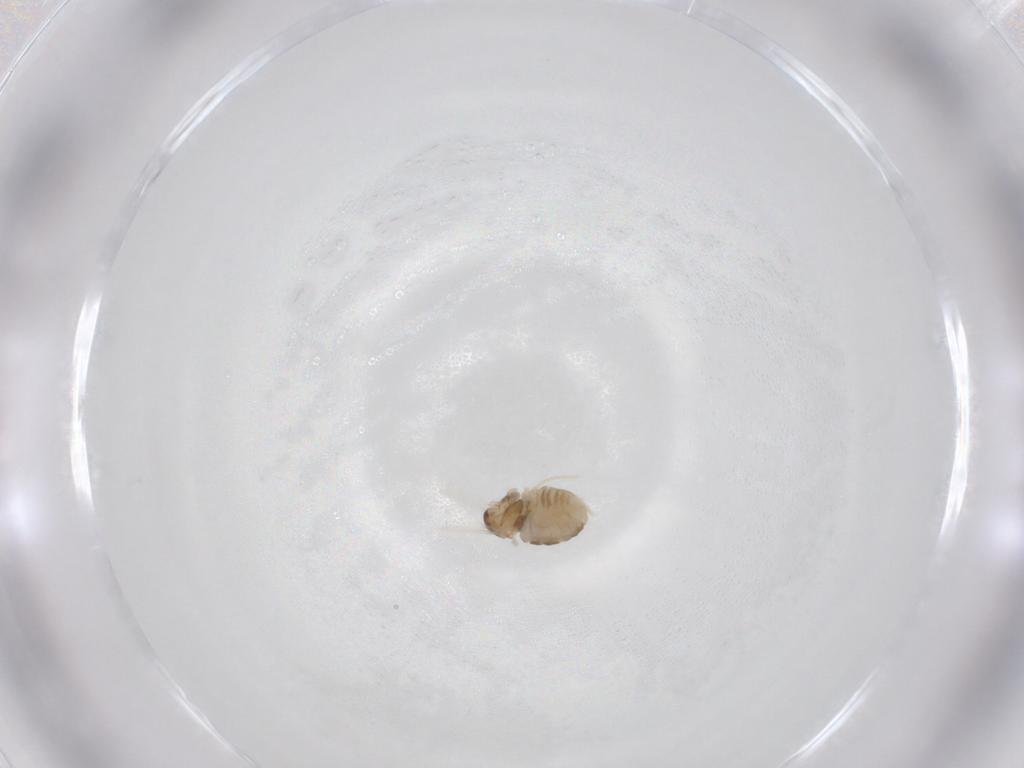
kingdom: Animalia
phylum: Arthropoda
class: Insecta
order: Diptera
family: Cecidomyiidae
